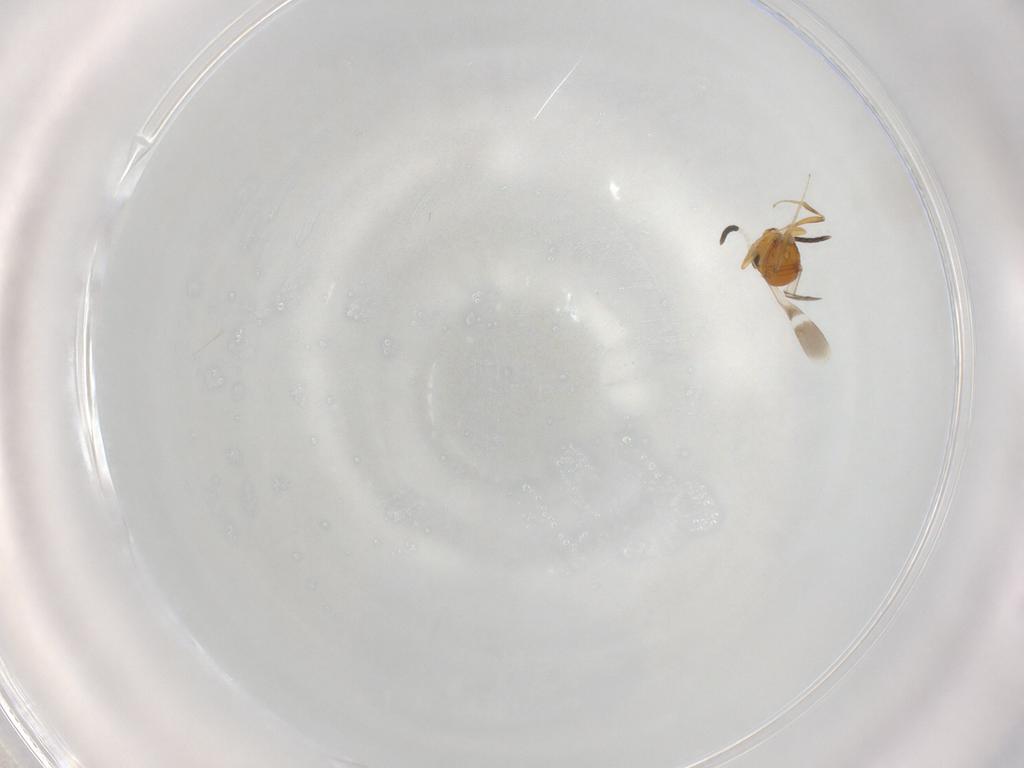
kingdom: Animalia
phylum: Arthropoda
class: Insecta
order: Hymenoptera
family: Scelionidae
